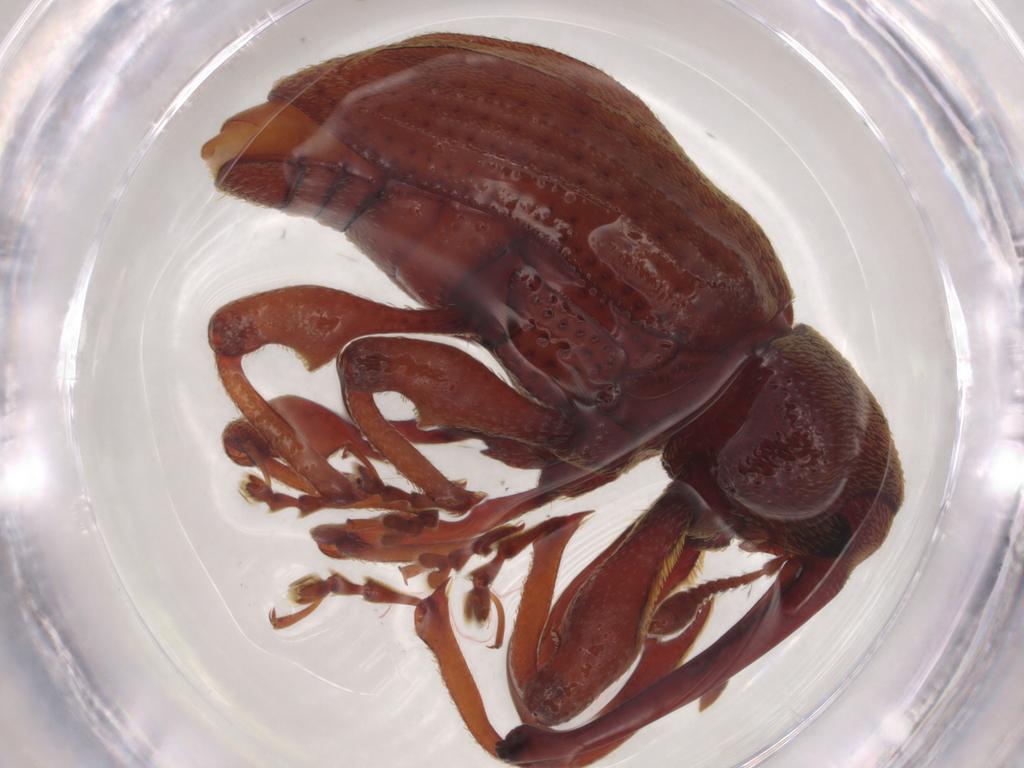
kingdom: Animalia
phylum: Arthropoda
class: Insecta
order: Coleoptera
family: Curculionidae
